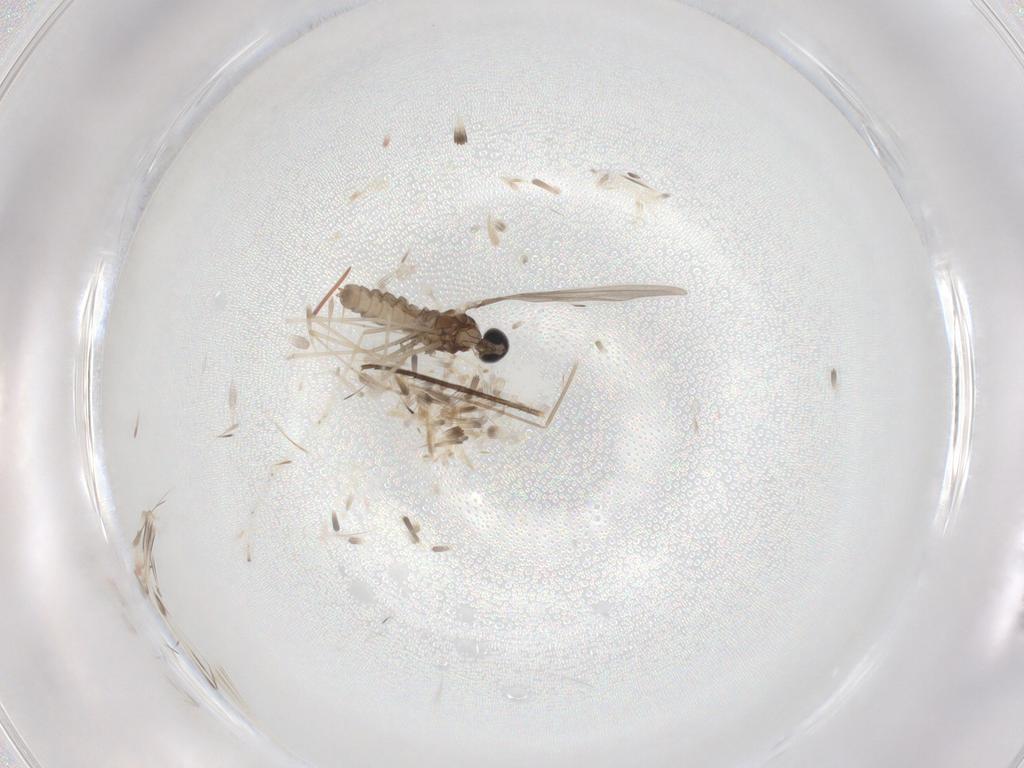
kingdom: Animalia
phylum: Arthropoda
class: Insecta
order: Diptera
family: Cecidomyiidae
